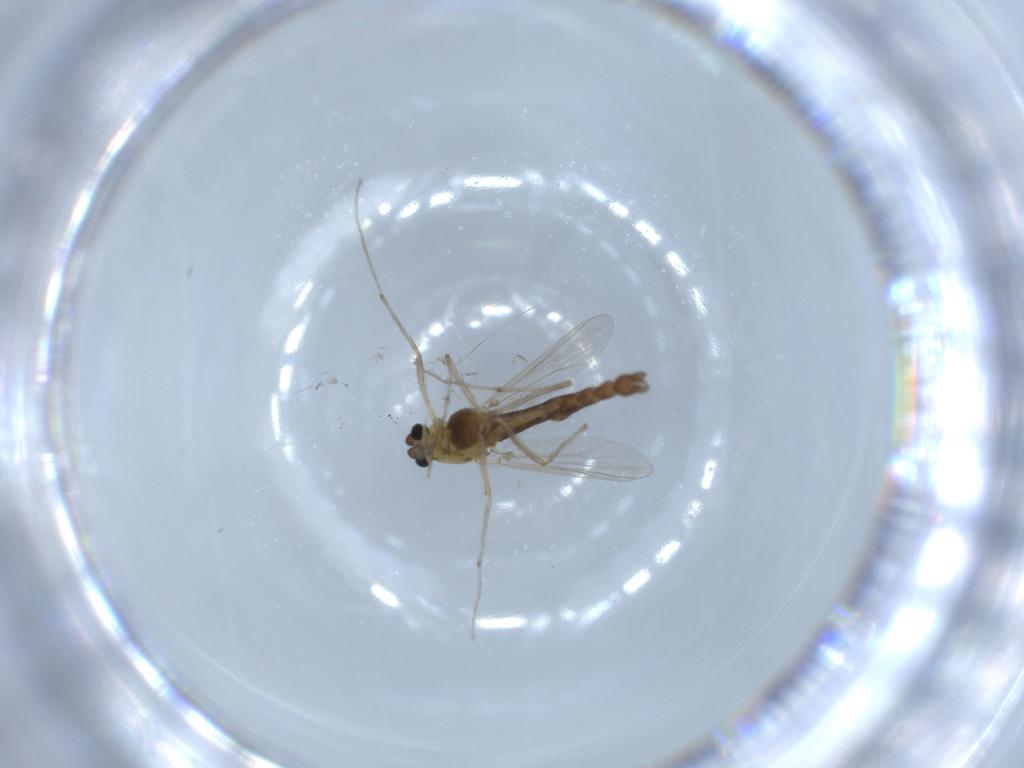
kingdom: Animalia
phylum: Arthropoda
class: Insecta
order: Diptera
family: Chironomidae
